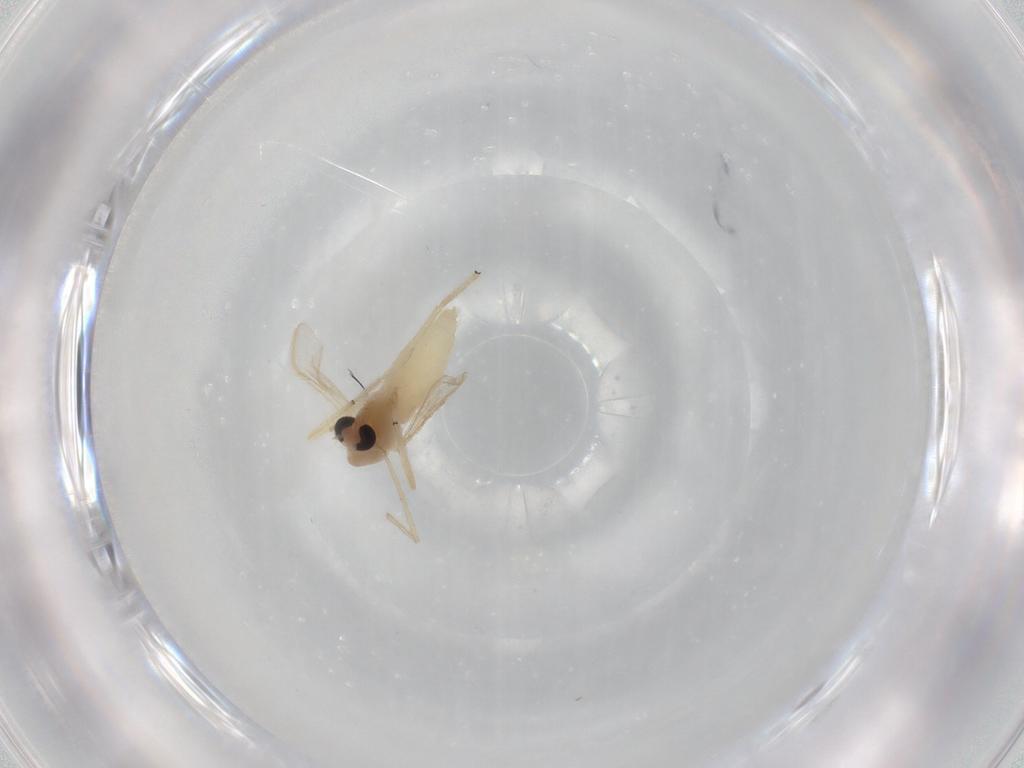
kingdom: Animalia
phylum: Arthropoda
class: Insecta
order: Diptera
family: Chironomidae
